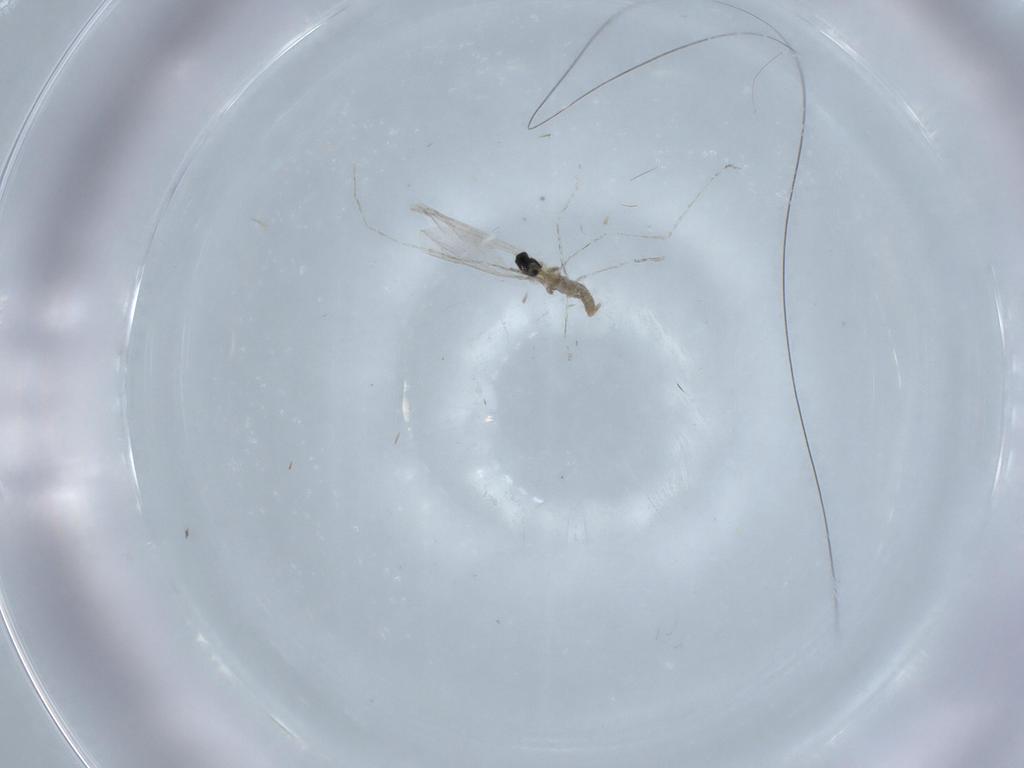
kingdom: Animalia
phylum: Arthropoda
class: Insecta
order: Diptera
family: Cecidomyiidae
